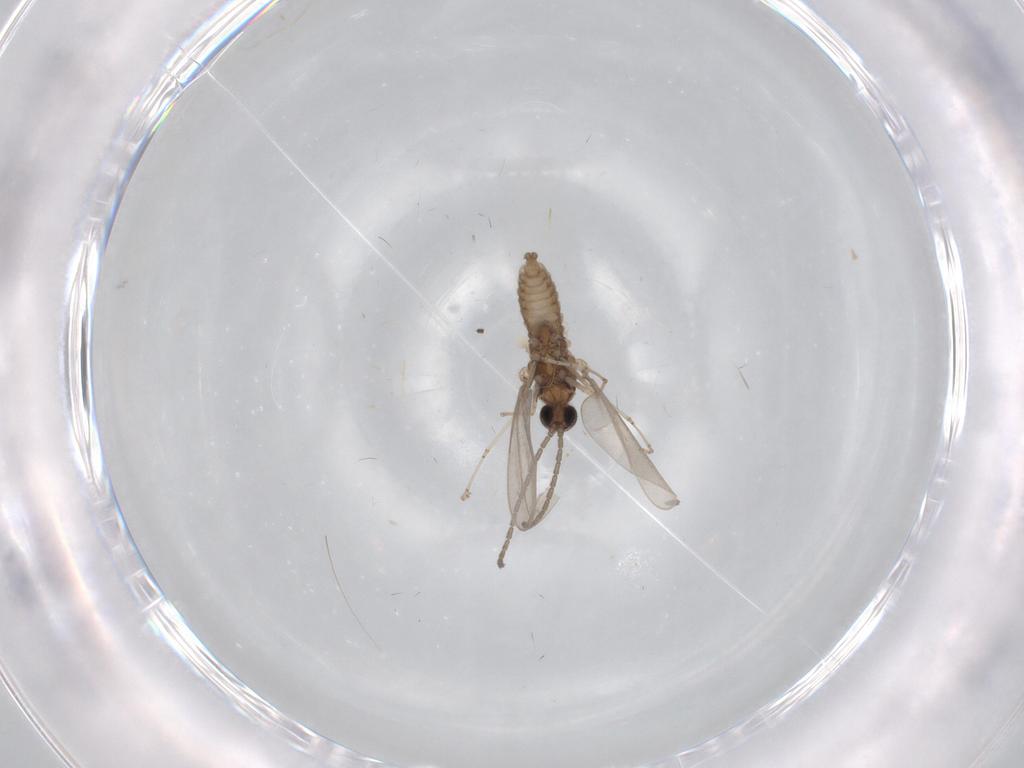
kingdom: Animalia
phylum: Arthropoda
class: Insecta
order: Diptera
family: Cecidomyiidae
